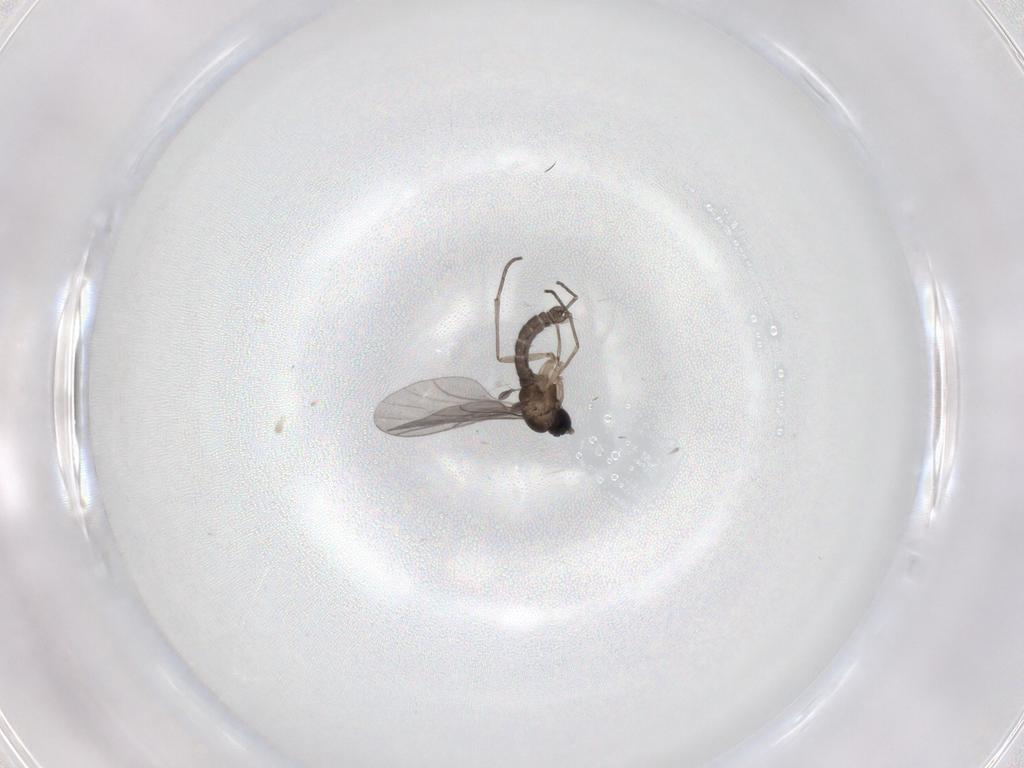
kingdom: Animalia
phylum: Arthropoda
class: Insecta
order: Diptera
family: Sciaridae
